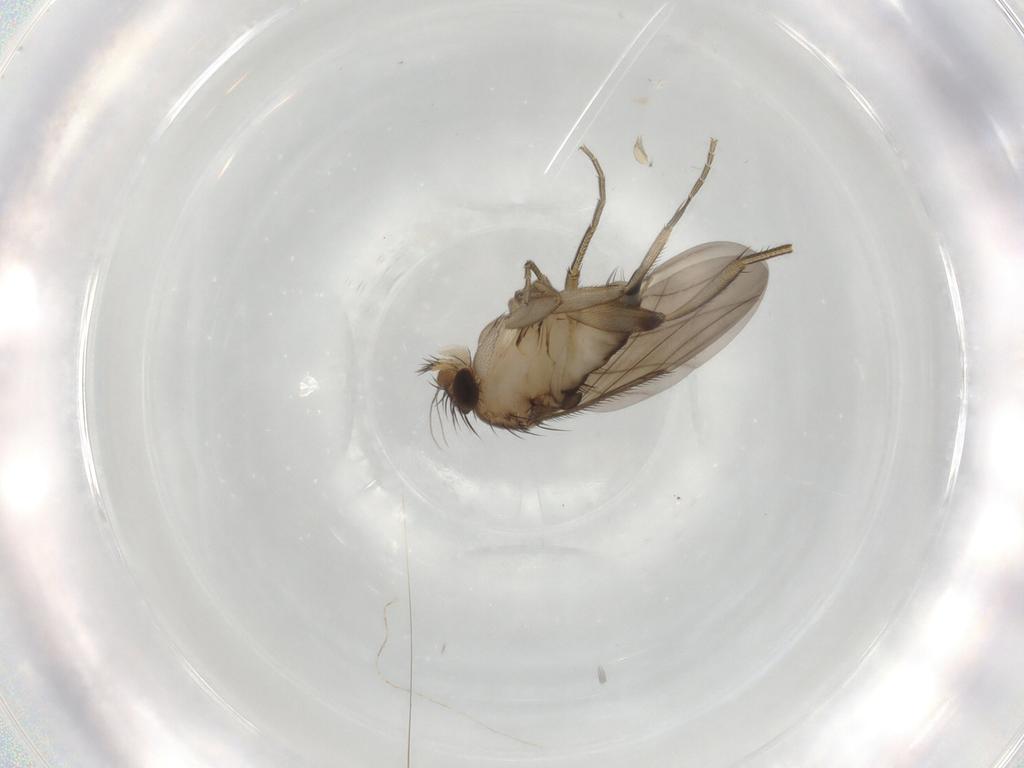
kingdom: Animalia
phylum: Arthropoda
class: Insecta
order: Diptera
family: Phoridae
